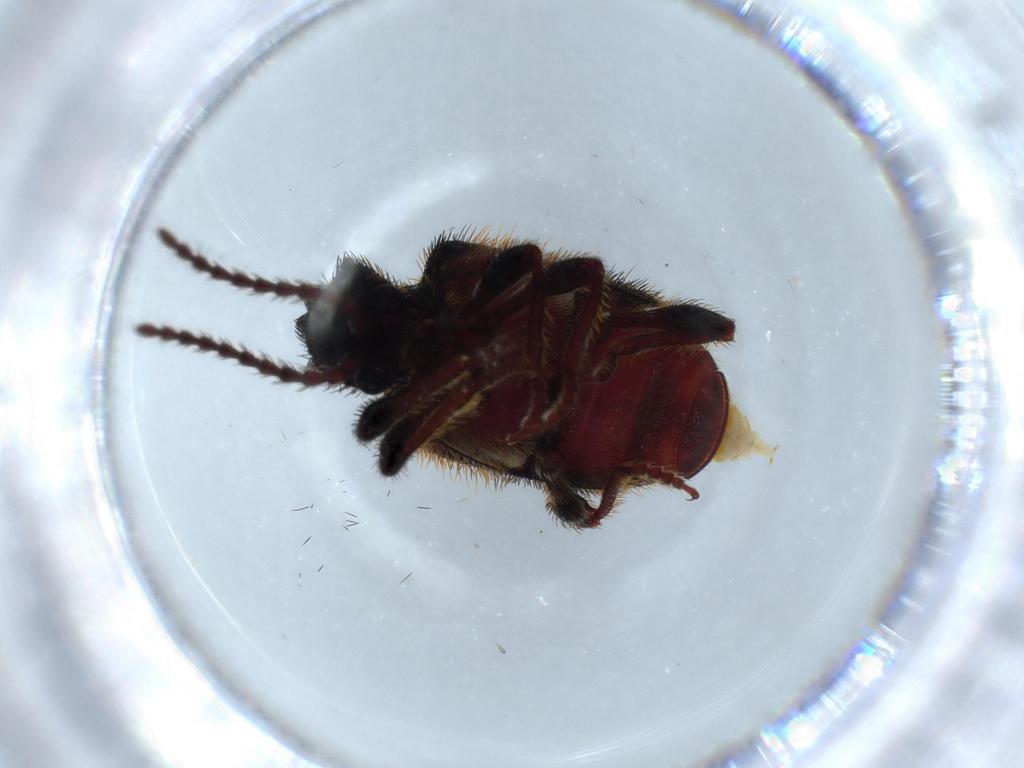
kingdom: Animalia
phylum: Arthropoda
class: Insecta
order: Coleoptera
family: Ptinidae
